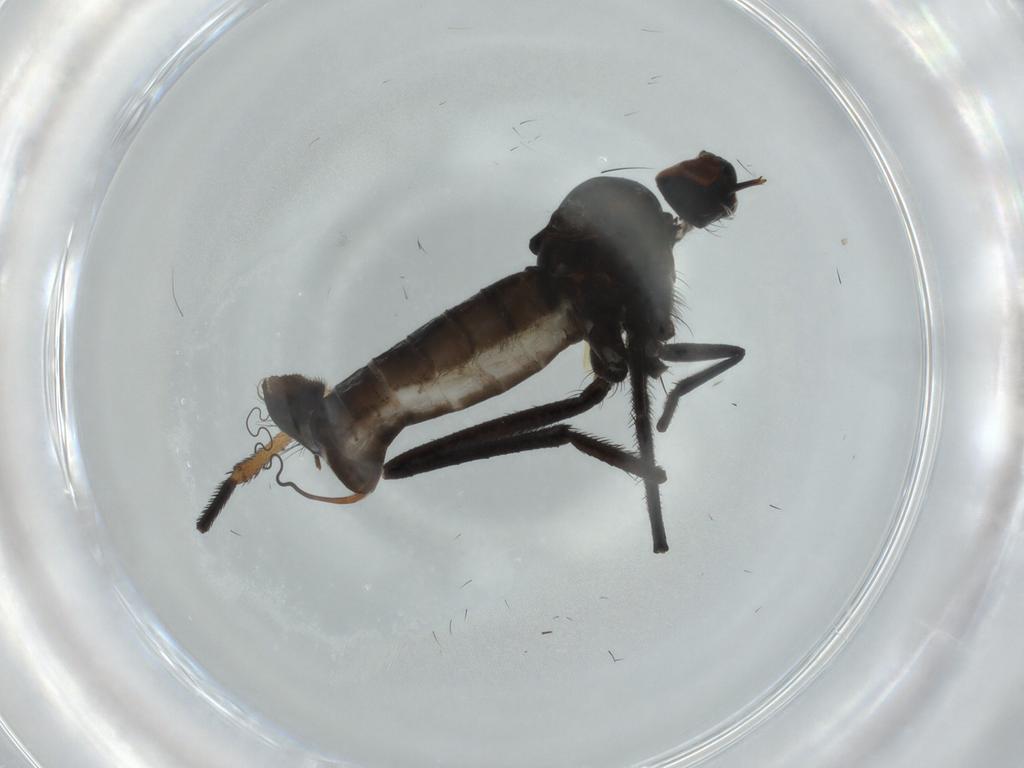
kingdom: Animalia
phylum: Arthropoda
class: Insecta
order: Diptera
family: Empididae
